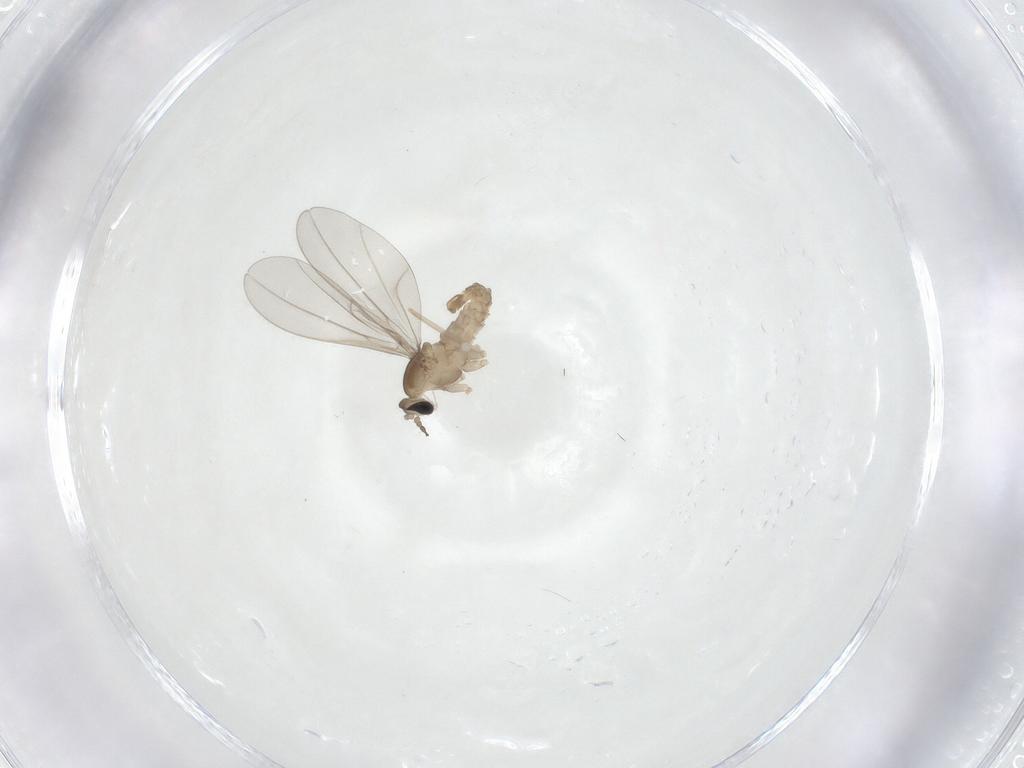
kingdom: Animalia
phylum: Arthropoda
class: Insecta
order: Diptera
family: Cecidomyiidae
